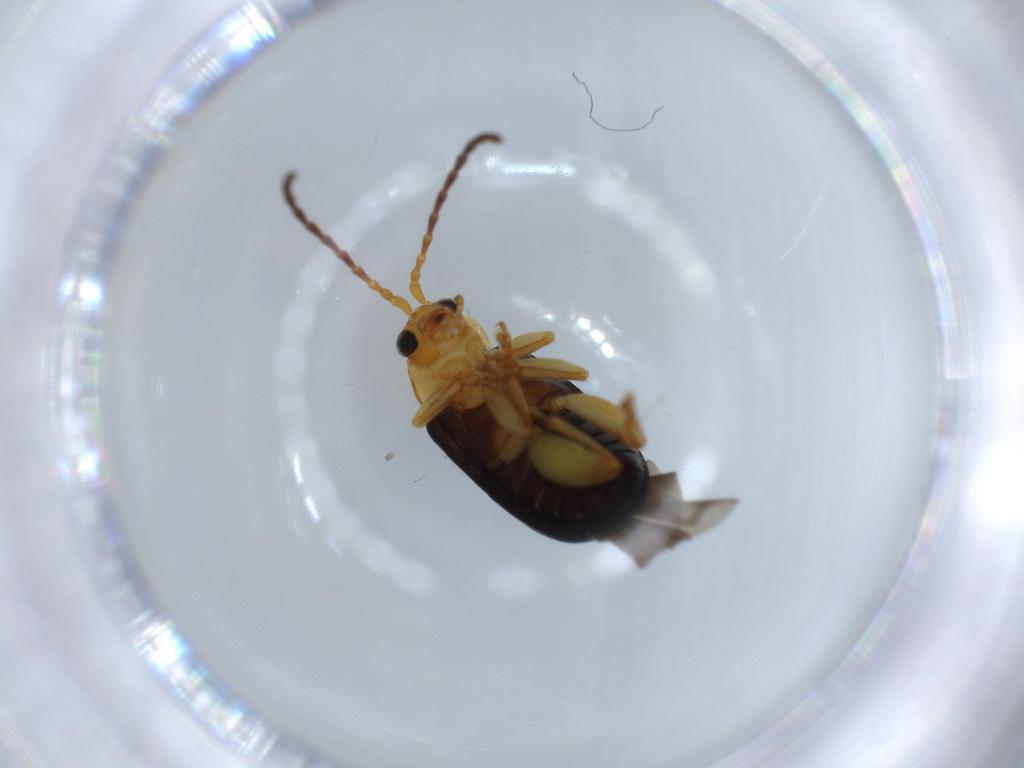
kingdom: Animalia
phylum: Arthropoda
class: Insecta
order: Coleoptera
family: Chrysomelidae
